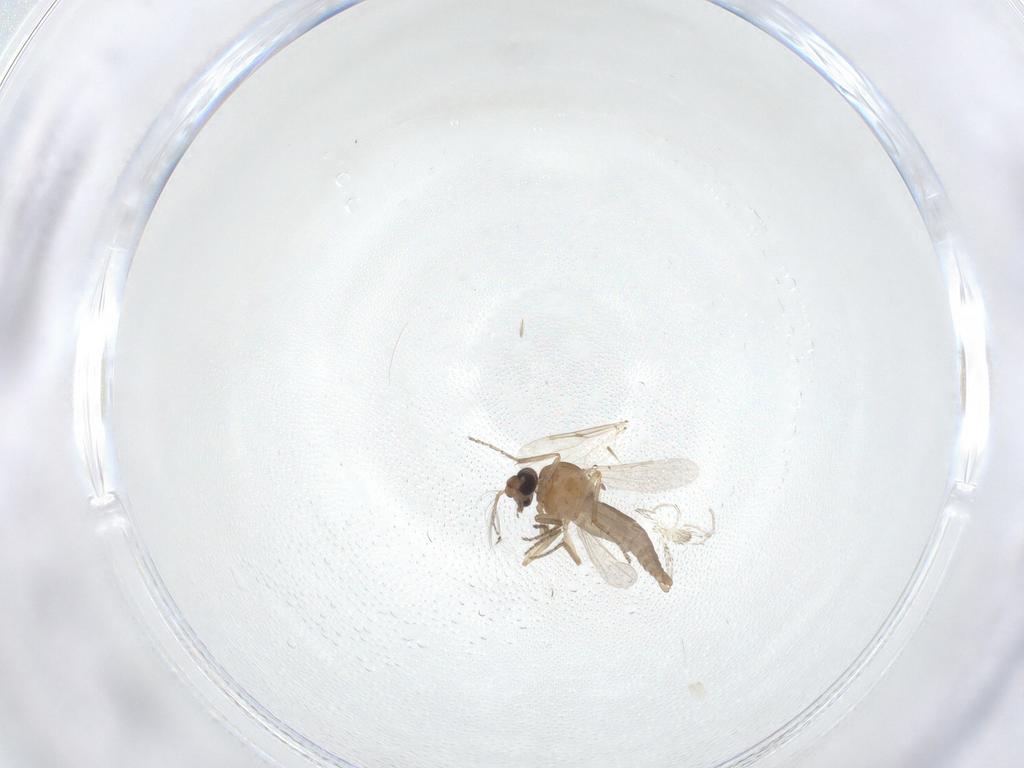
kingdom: Animalia
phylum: Arthropoda
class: Insecta
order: Diptera
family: Ceratopogonidae
